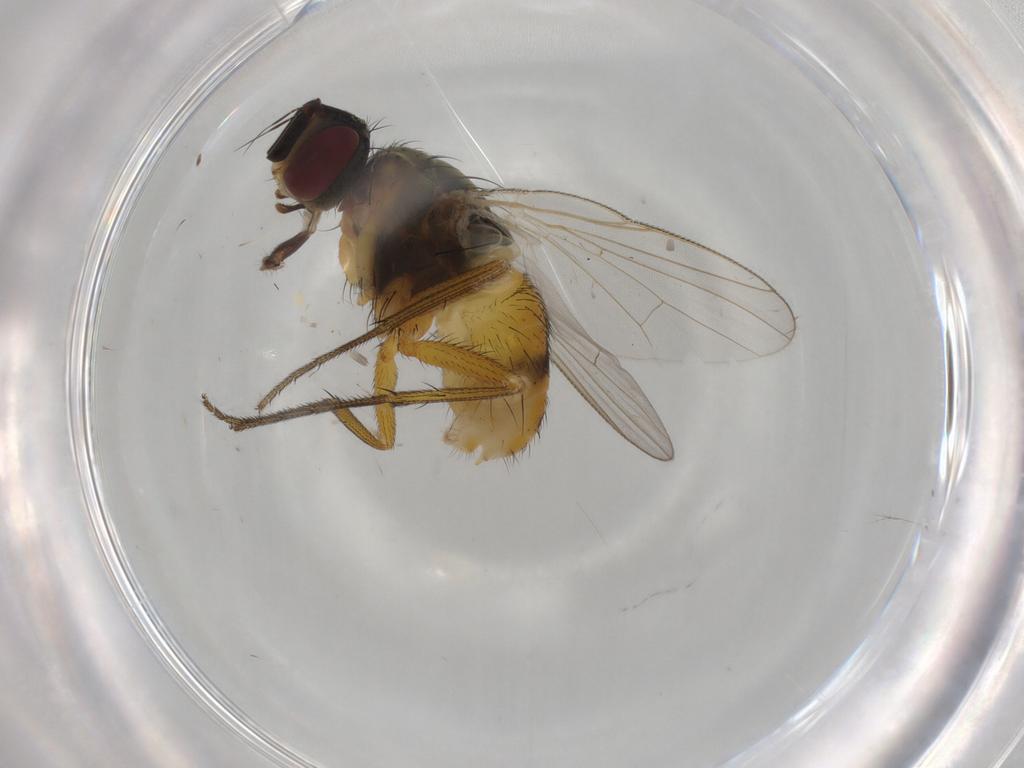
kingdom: Animalia
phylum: Arthropoda
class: Insecta
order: Diptera
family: Muscidae
